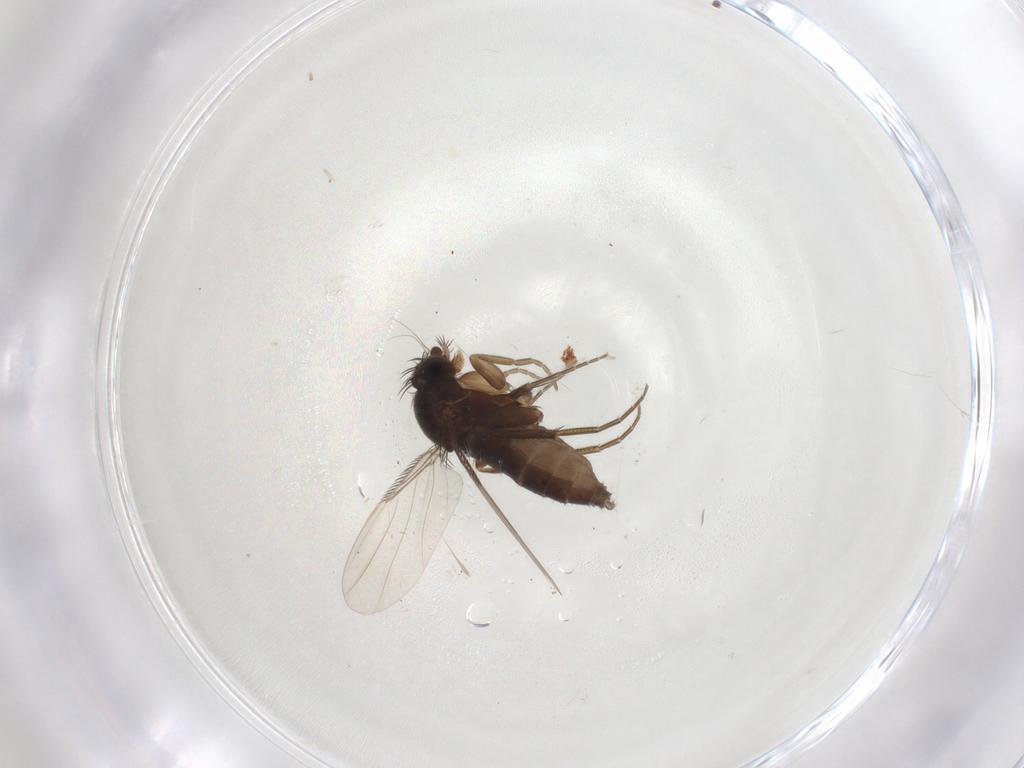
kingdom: Animalia
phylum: Arthropoda
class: Insecta
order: Diptera
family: Phoridae
